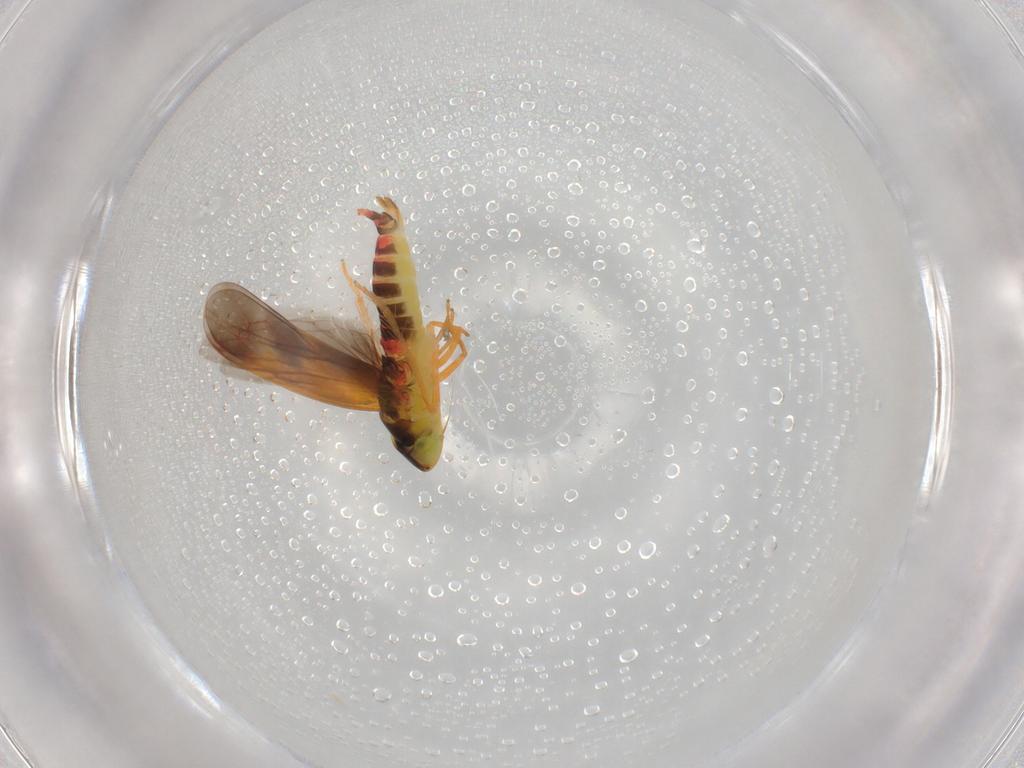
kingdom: Animalia
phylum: Arthropoda
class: Insecta
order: Hemiptera
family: Cicadellidae
